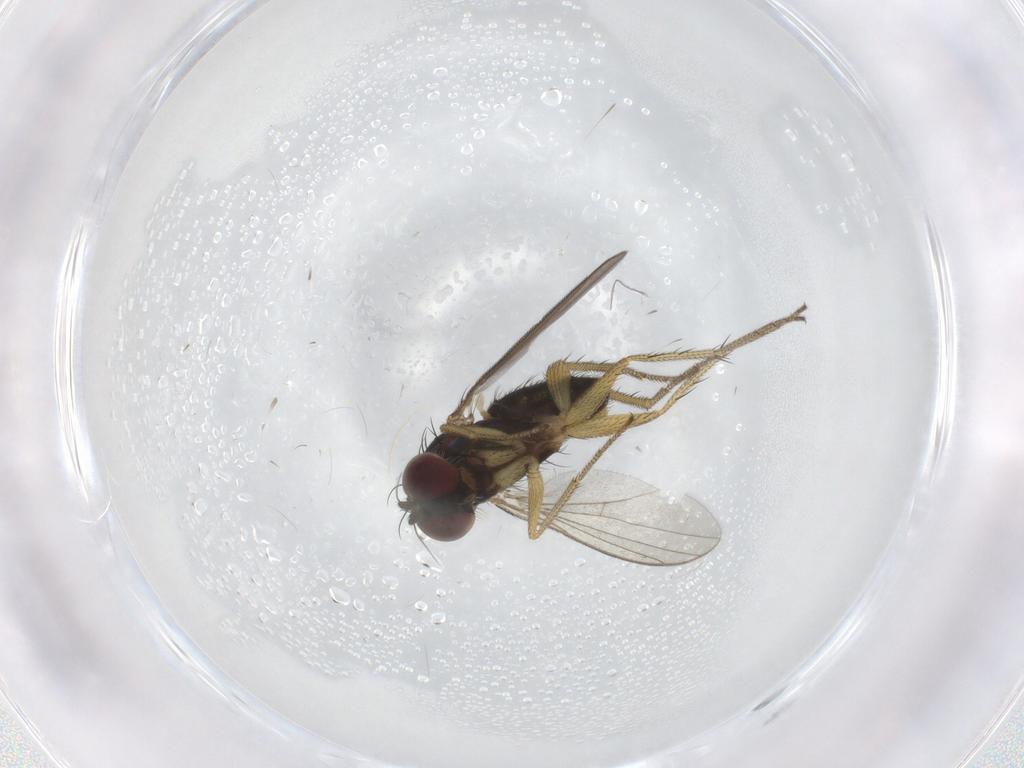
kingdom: Animalia
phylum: Arthropoda
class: Insecta
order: Diptera
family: Dolichopodidae
